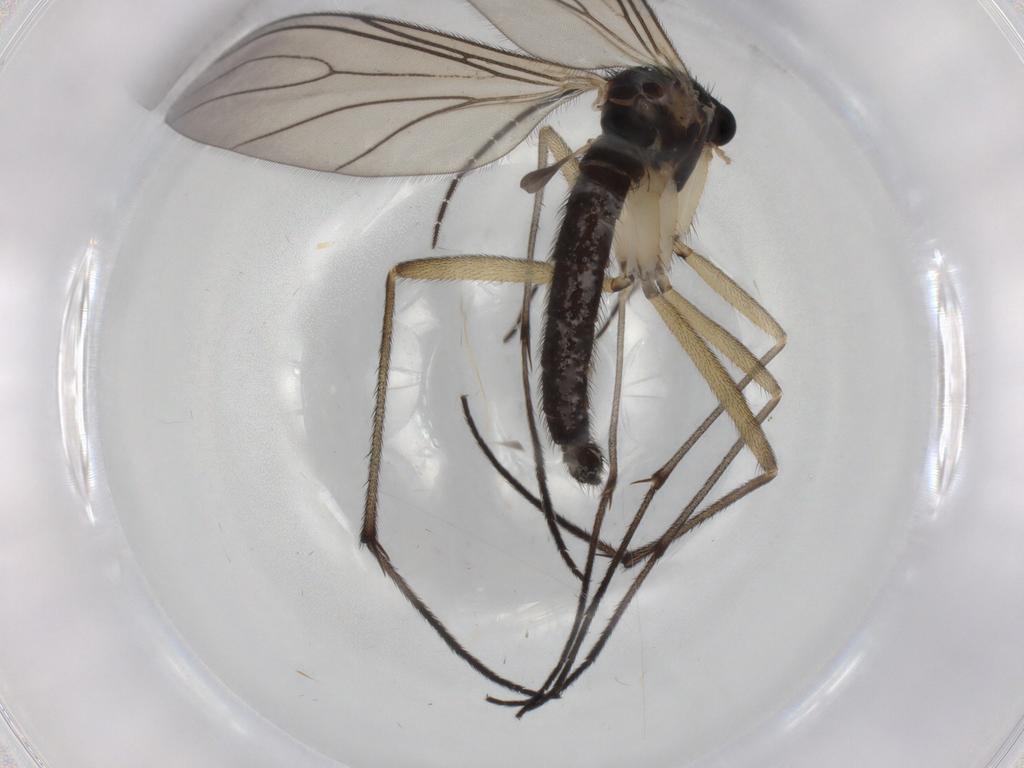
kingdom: Animalia
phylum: Arthropoda
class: Insecta
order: Diptera
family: Sciaridae
